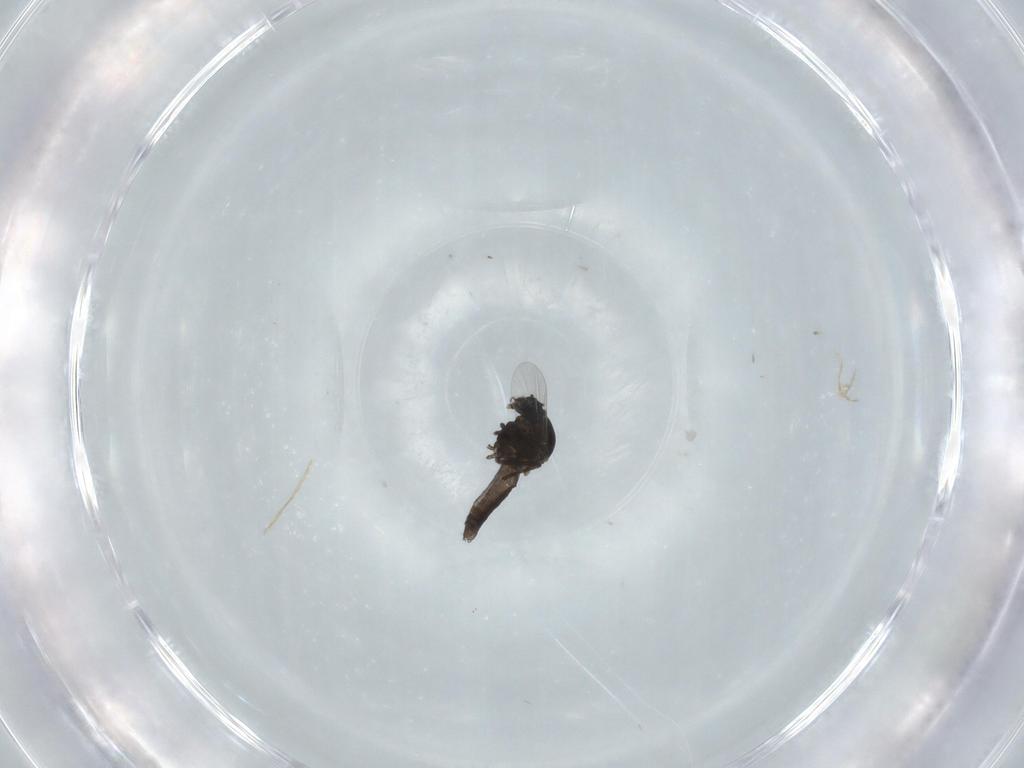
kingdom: Animalia
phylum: Arthropoda
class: Insecta
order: Diptera
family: Ceratopogonidae
